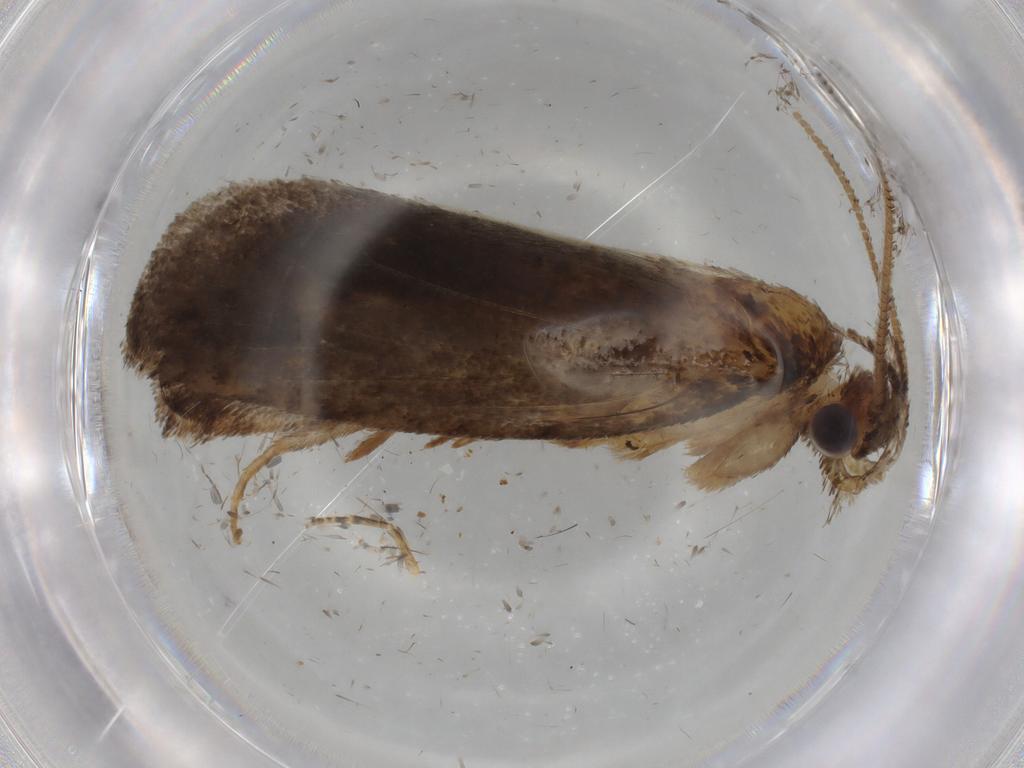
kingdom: Animalia
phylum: Arthropoda
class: Insecta
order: Lepidoptera
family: Tineidae
